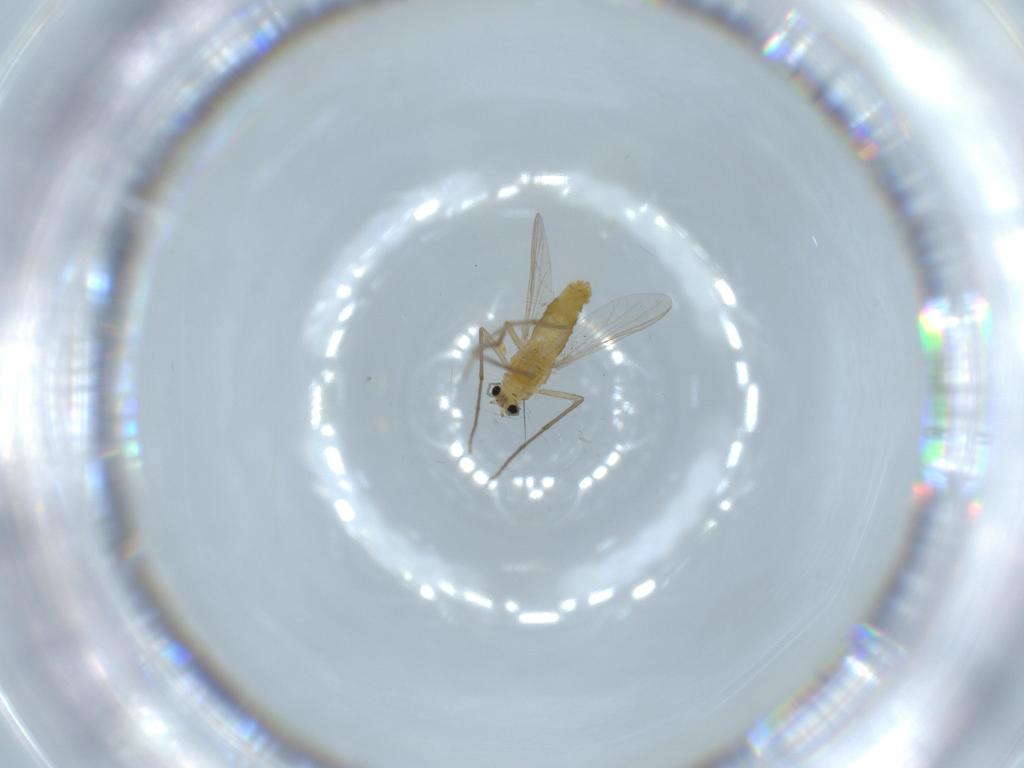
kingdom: Animalia
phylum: Arthropoda
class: Insecta
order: Diptera
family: Chironomidae
